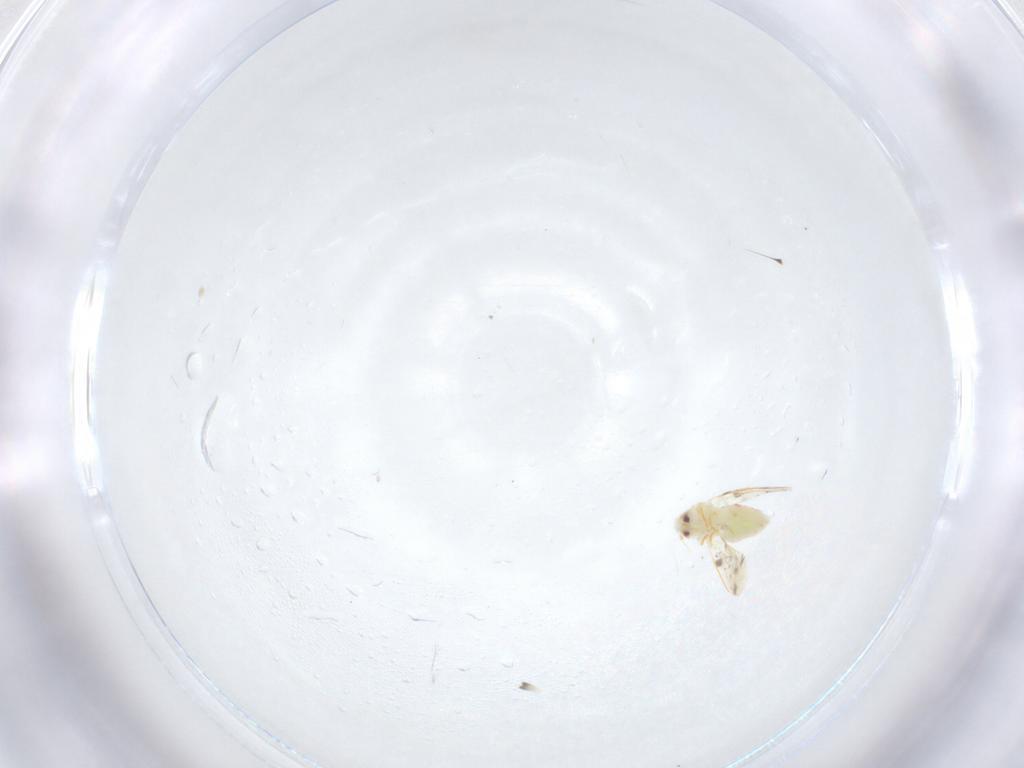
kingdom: Animalia
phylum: Arthropoda
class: Insecta
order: Hemiptera
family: Aleyrodidae
